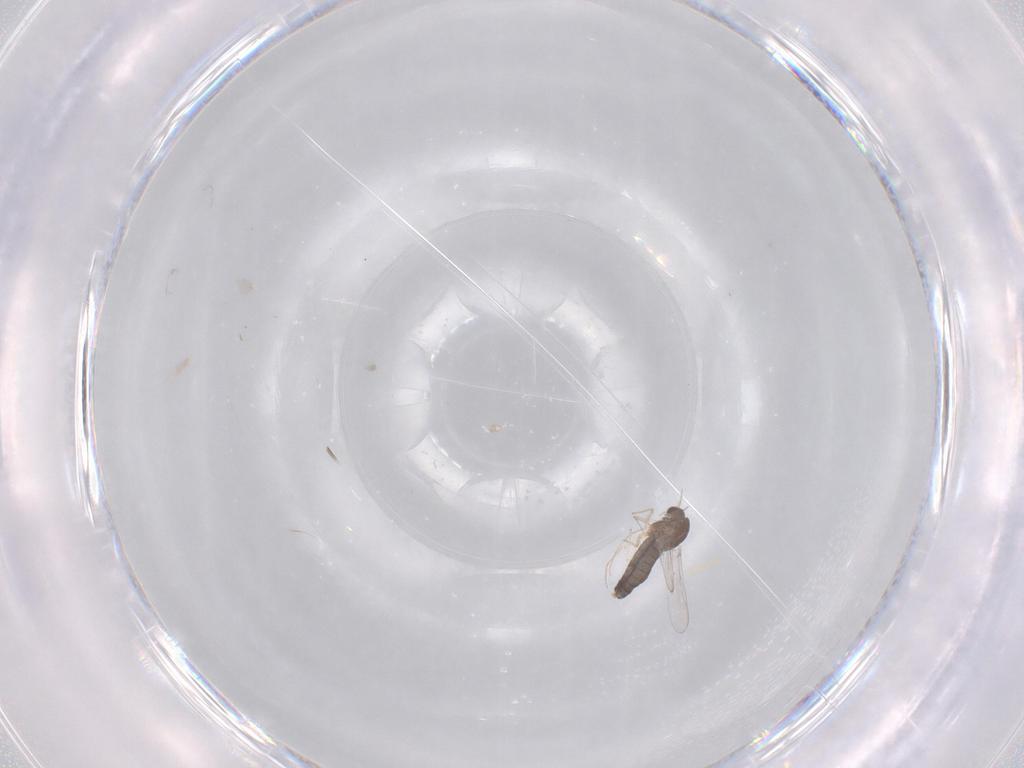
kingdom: Animalia
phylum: Arthropoda
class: Insecta
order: Diptera
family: Chironomidae
